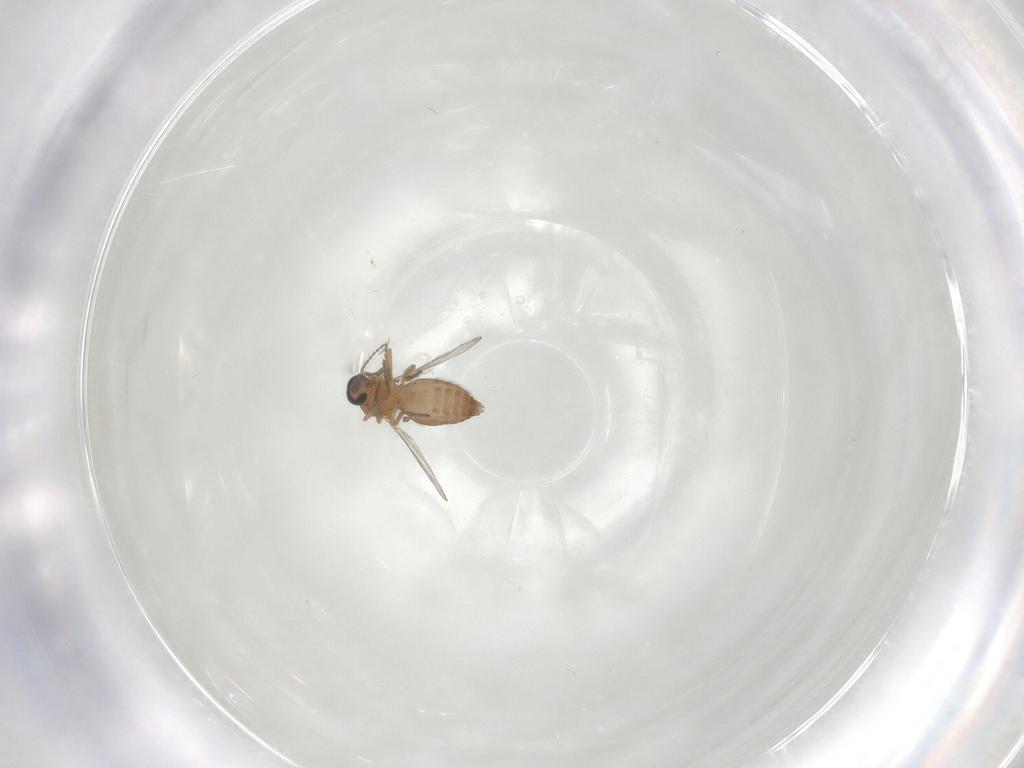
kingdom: Animalia
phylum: Arthropoda
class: Insecta
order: Diptera
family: Ceratopogonidae
